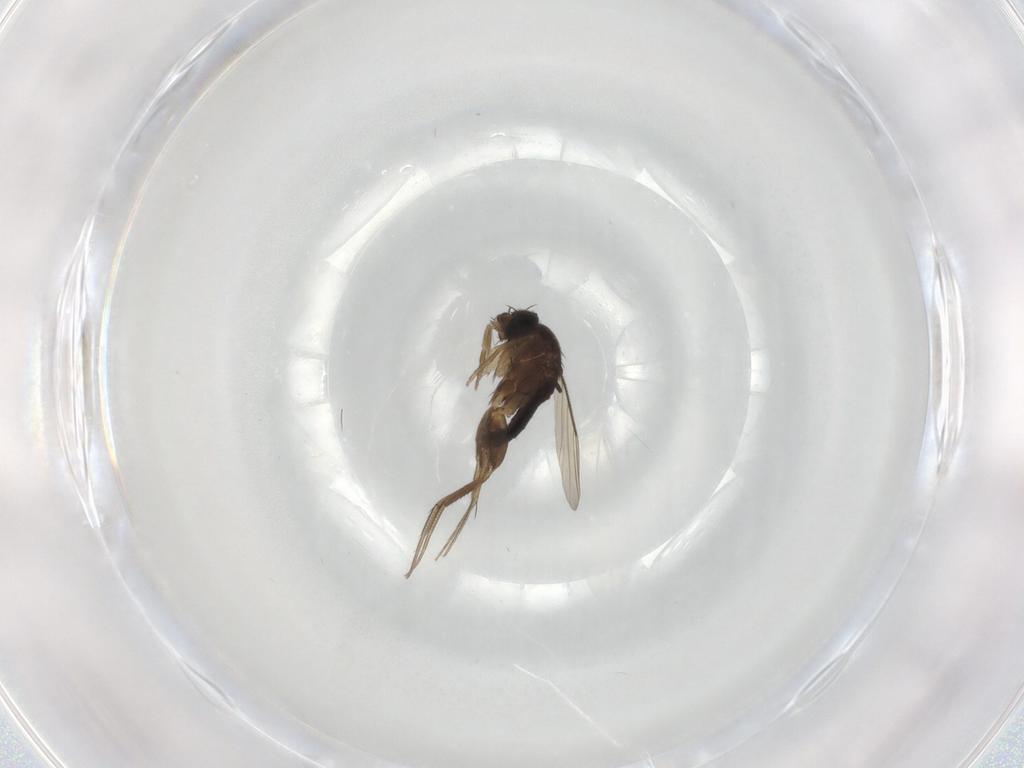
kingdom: Animalia
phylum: Arthropoda
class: Insecta
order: Diptera
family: Phoridae
